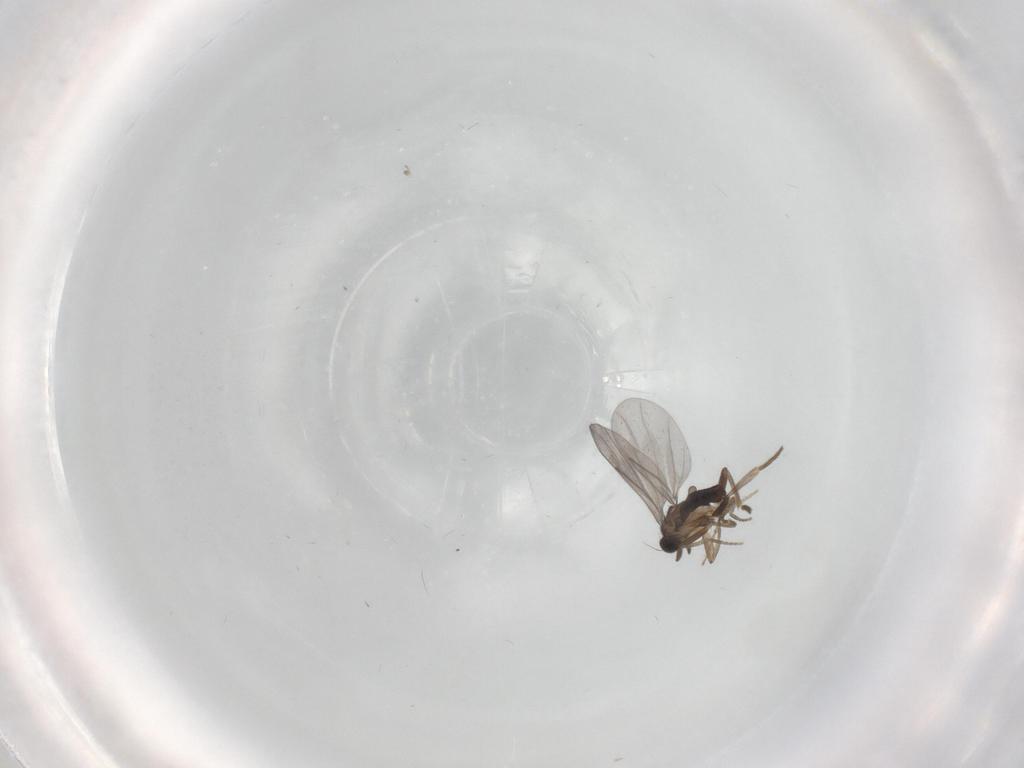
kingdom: Animalia
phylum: Arthropoda
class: Insecta
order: Diptera
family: Chironomidae
